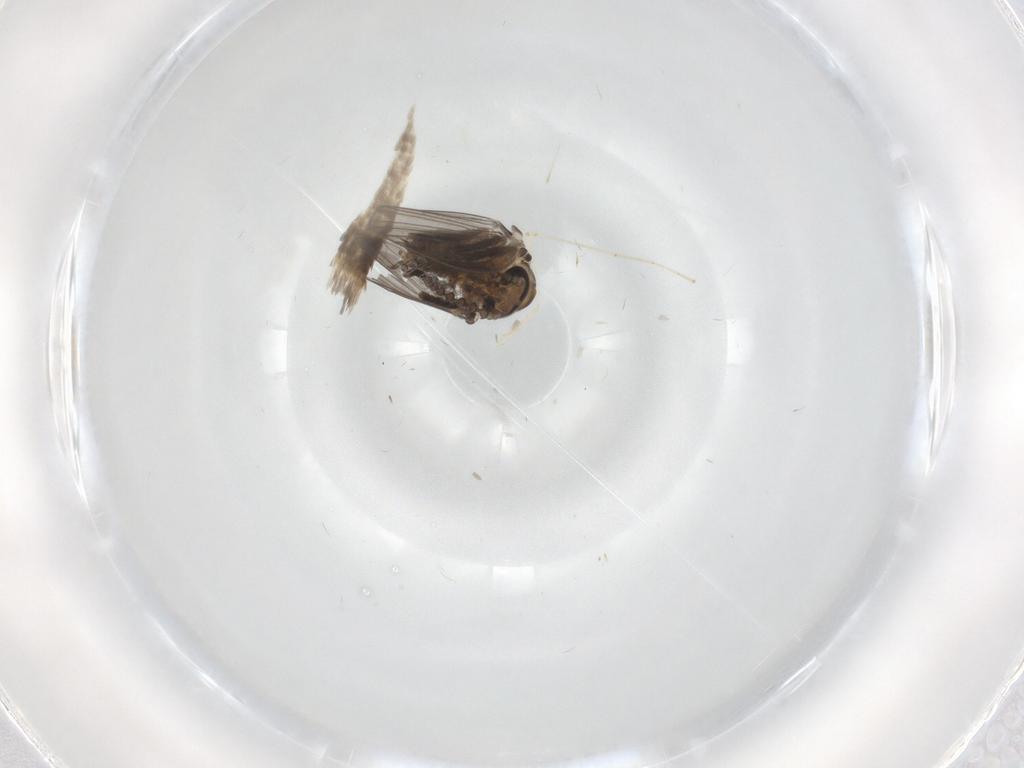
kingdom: Animalia
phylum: Arthropoda
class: Insecta
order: Diptera
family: Psychodidae
